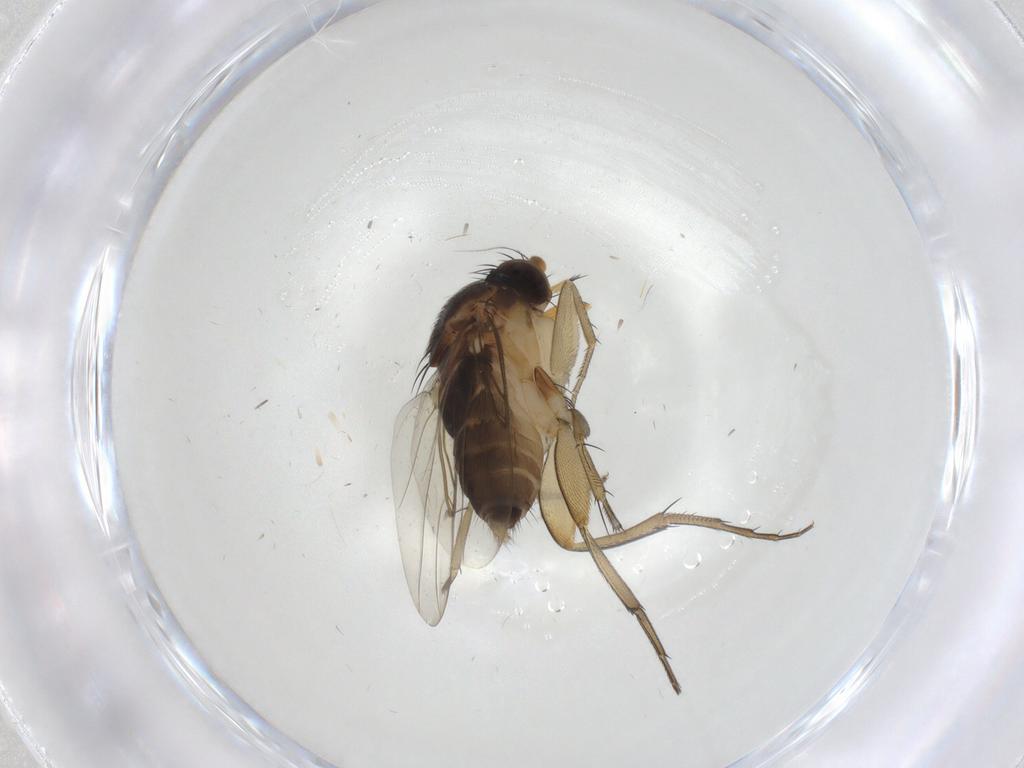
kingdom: Animalia
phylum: Arthropoda
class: Insecta
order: Diptera
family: Phoridae
